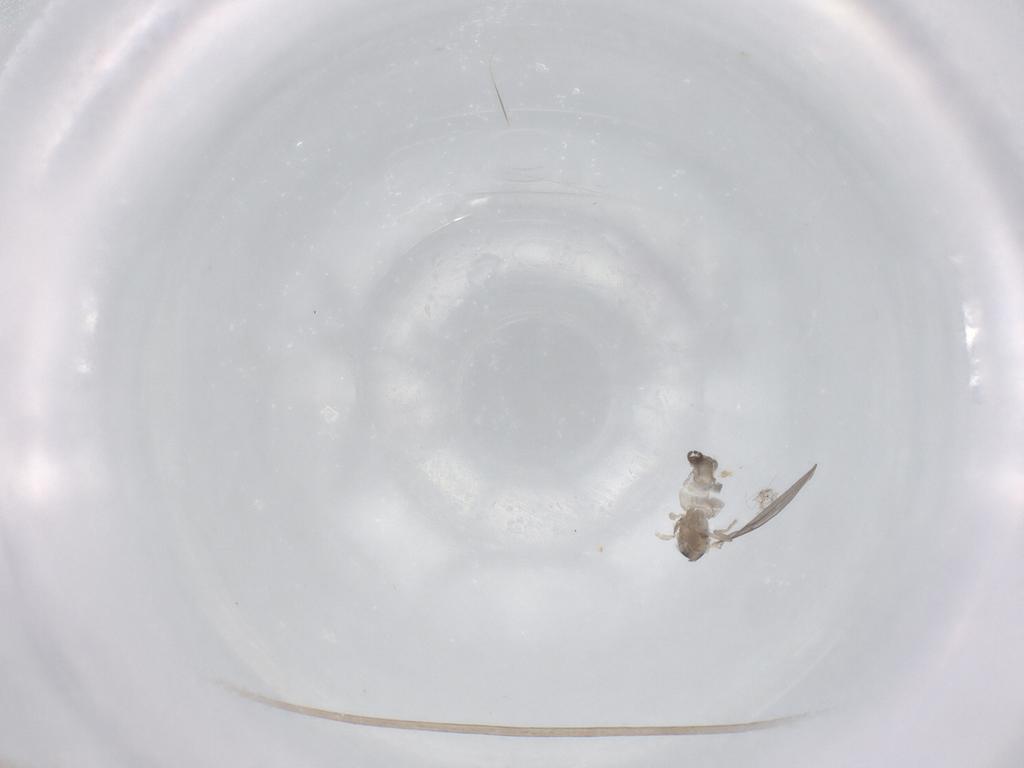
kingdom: Animalia
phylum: Arthropoda
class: Insecta
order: Diptera
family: Cecidomyiidae
